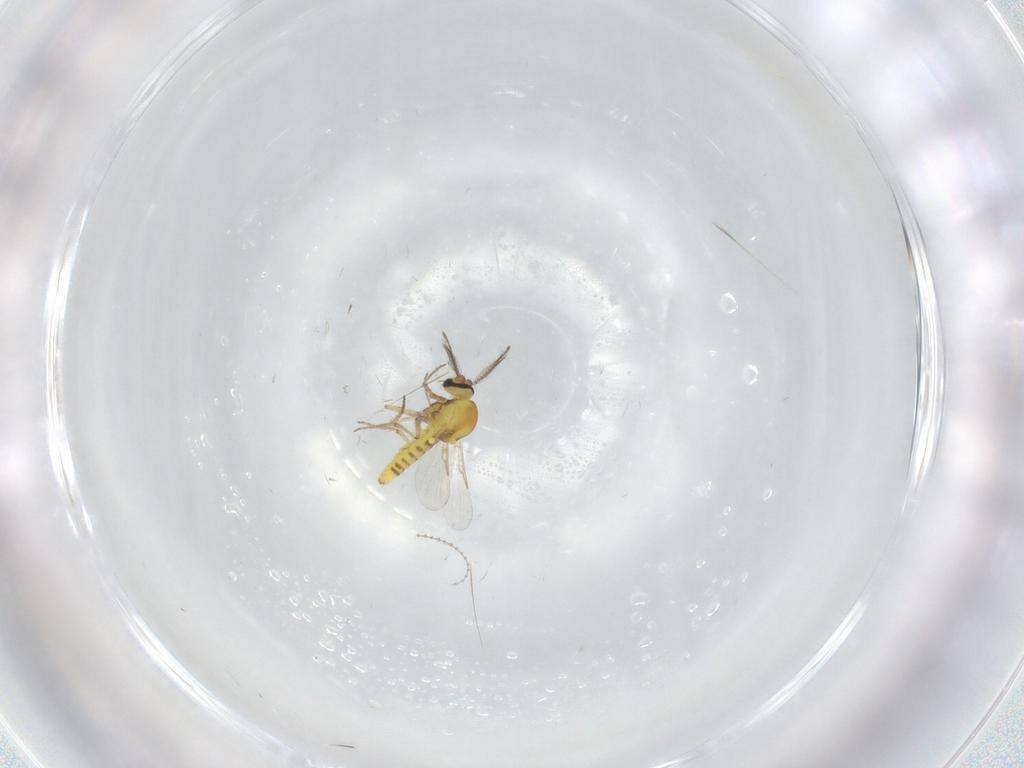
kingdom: Animalia
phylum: Arthropoda
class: Insecta
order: Diptera
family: Ceratopogonidae
